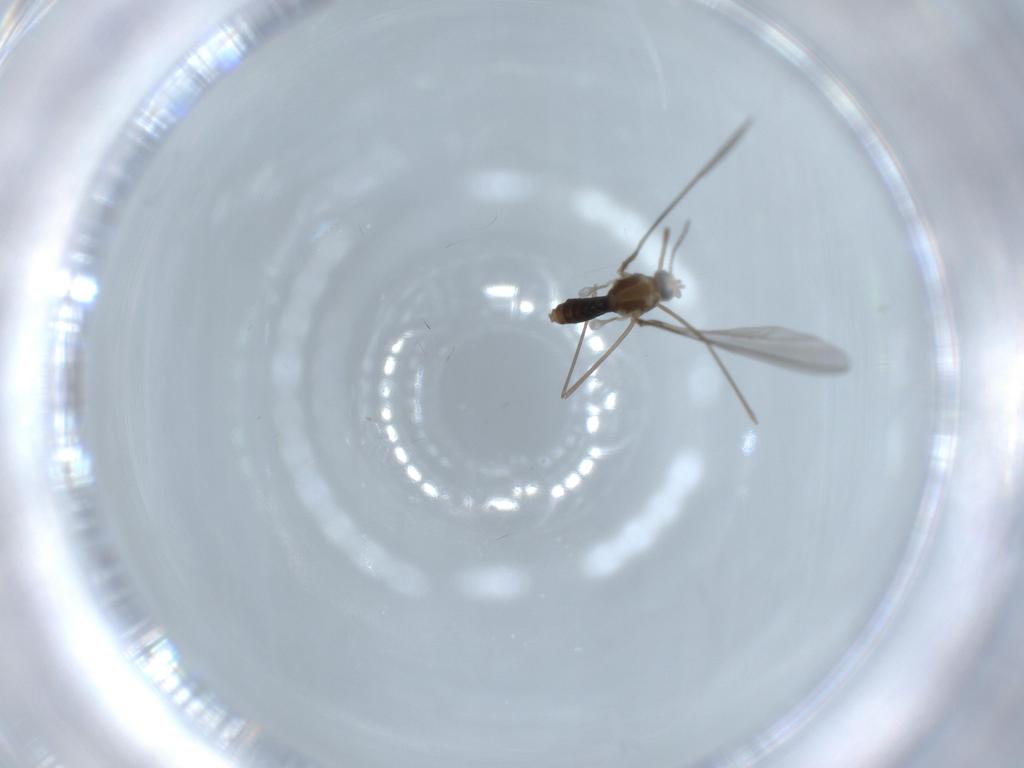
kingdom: Animalia
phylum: Arthropoda
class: Insecta
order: Diptera
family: Cecidomyiidae
